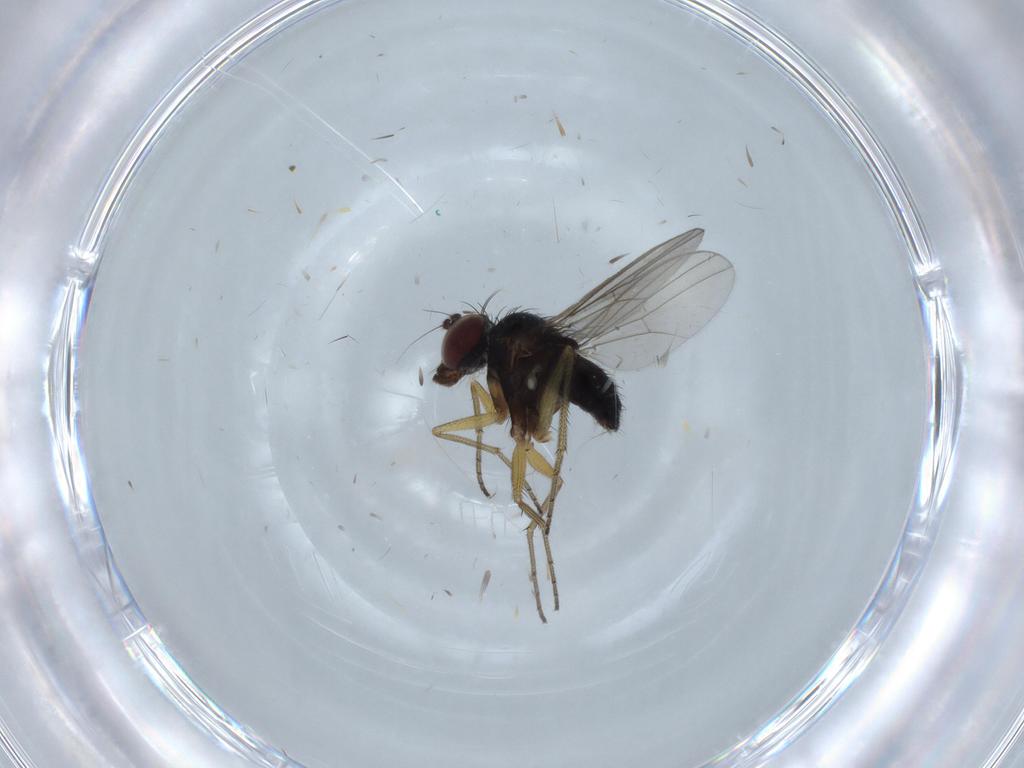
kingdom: Animalia
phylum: Arthropoda
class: Insecta
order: Diptera
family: Dolichopodidae
